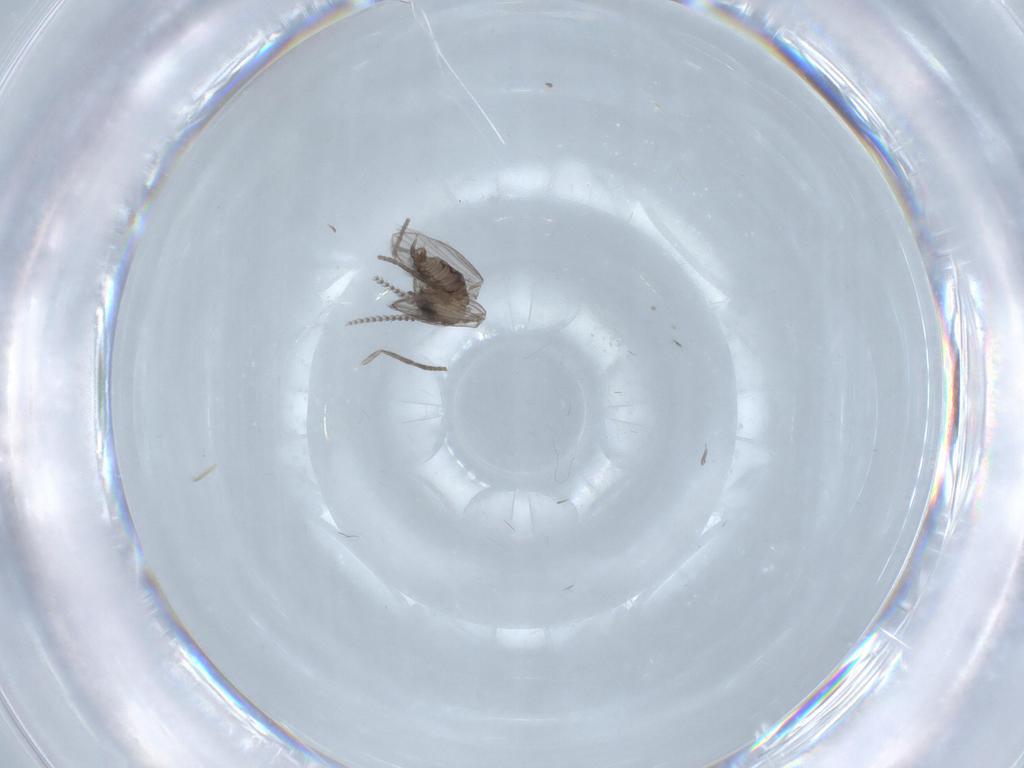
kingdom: Animalia
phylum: Arthropoda
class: Insecta
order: Diptera
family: Psychodidae
